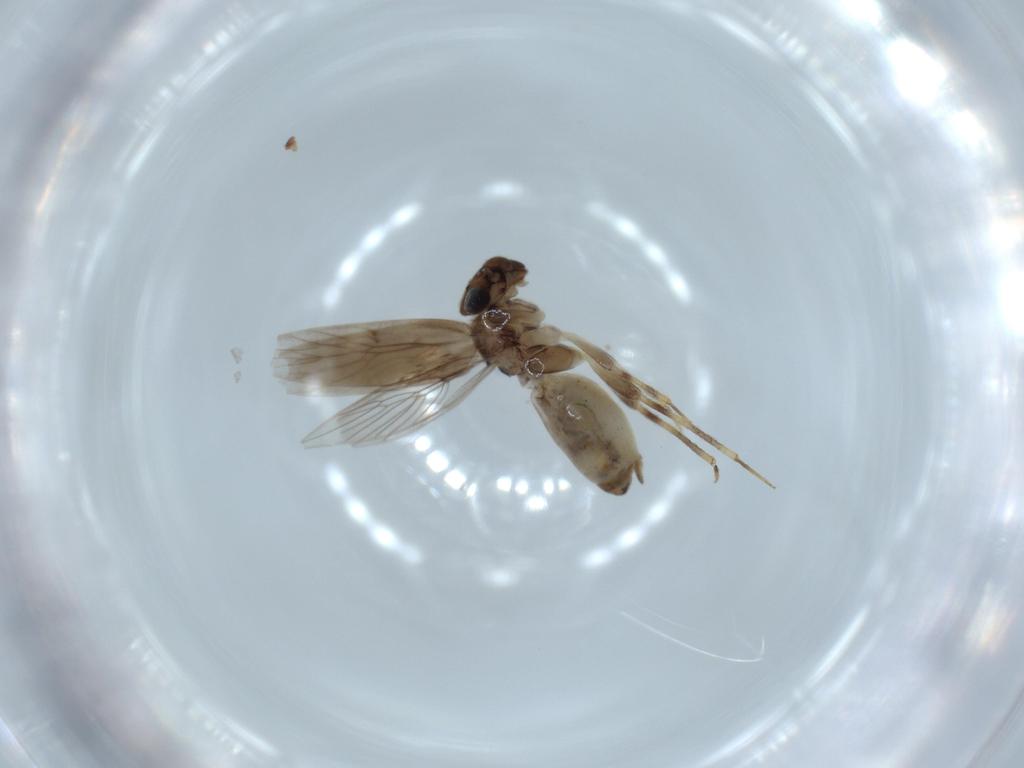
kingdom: Animalia
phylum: Arthropoda
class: Insecta
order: Psocodea
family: Lepidopsocidae
